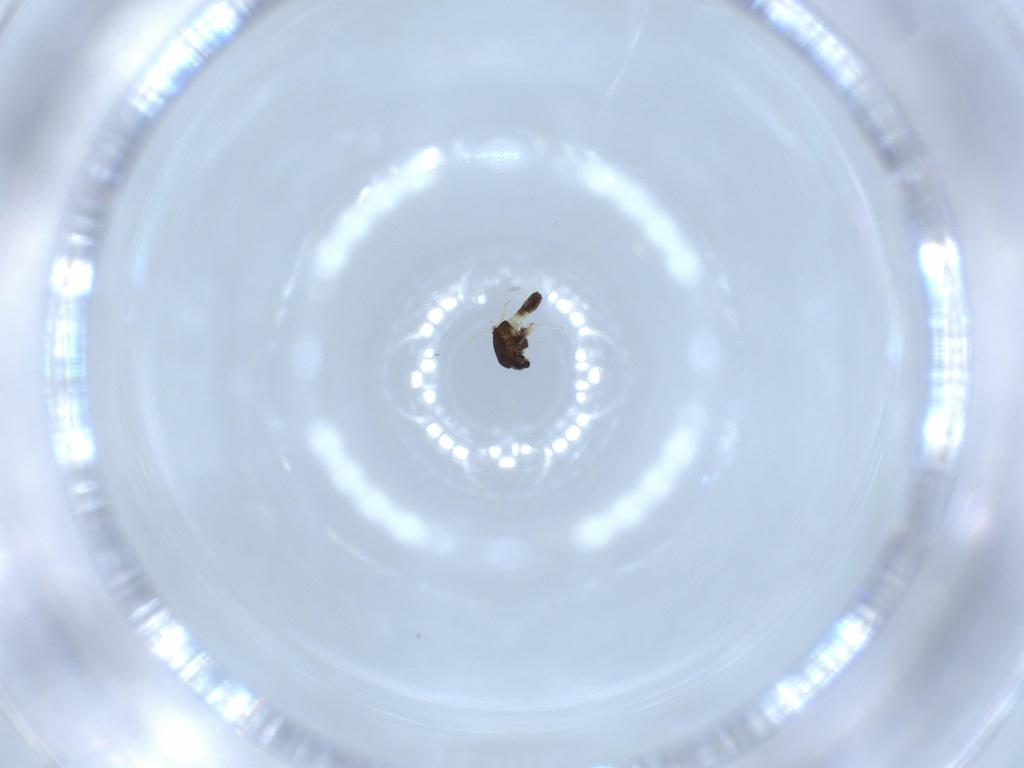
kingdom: Animalia
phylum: Arthropoda
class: Insecta
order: Diptera
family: Chironomidae
